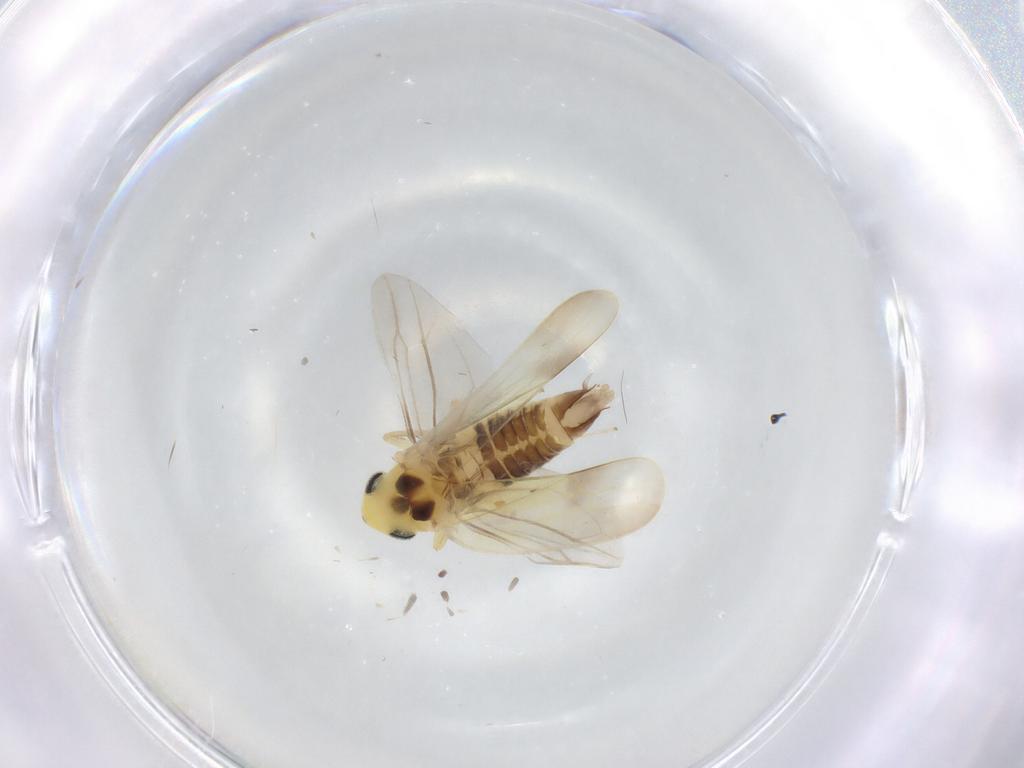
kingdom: Animalia
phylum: Arthropoda
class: Insecta
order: Hemiptera
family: Cicadellidae
